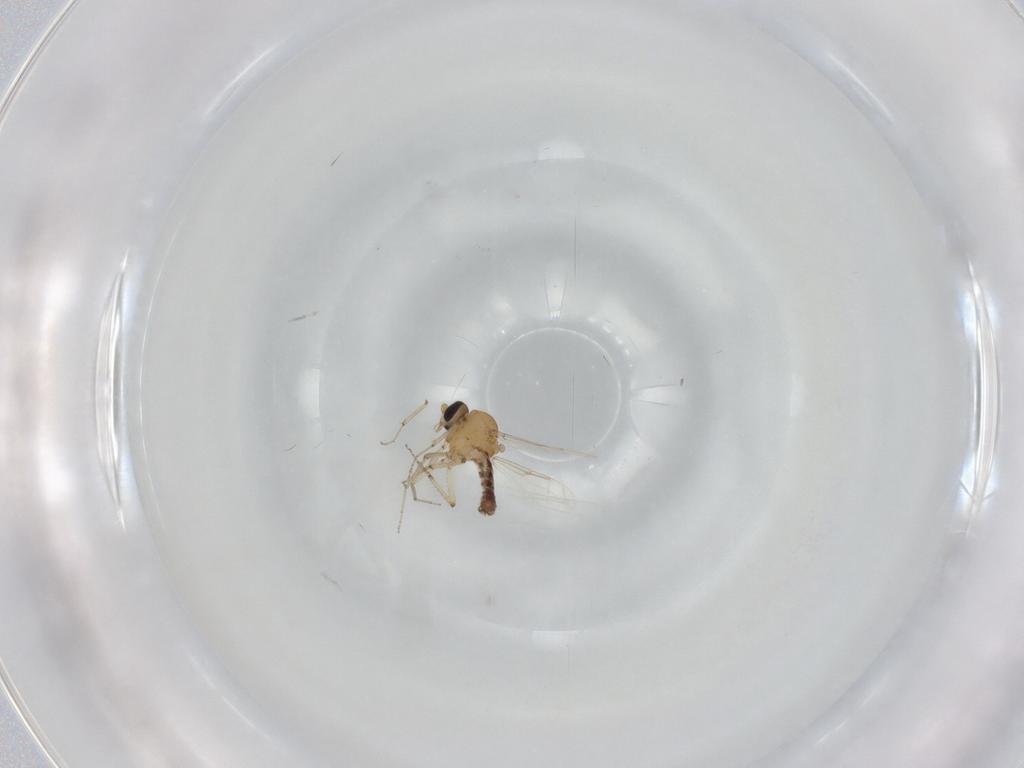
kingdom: Animalia
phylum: Arthropoda
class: Insecta
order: Diptera
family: Ceratopogonidae
